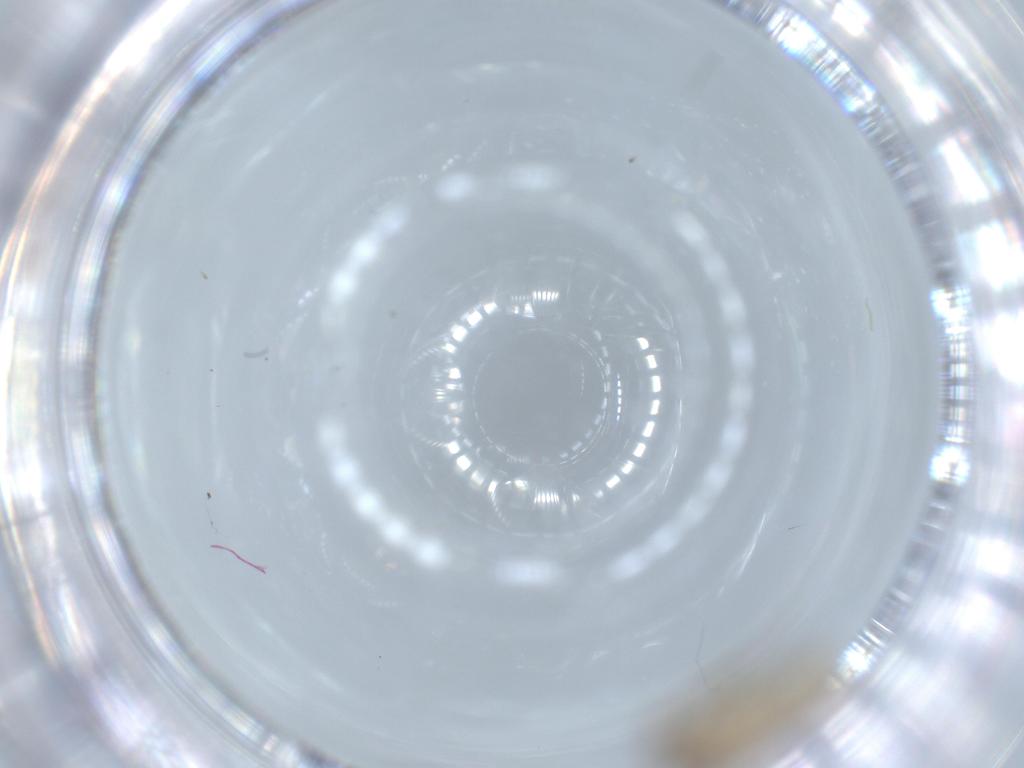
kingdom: Animalia
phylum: Arthropoda
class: Insecta
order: Psocodea
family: Lepidopsocidae
